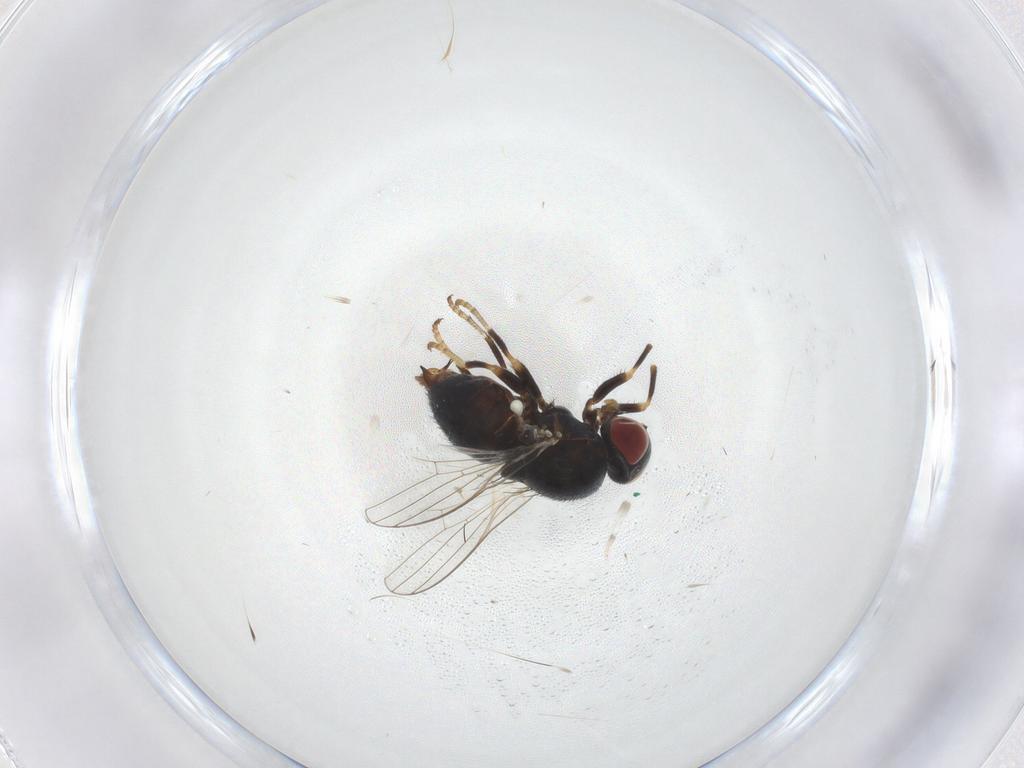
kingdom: Animalia
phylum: Arthropoda
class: Insecta
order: Diptera
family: Chamaemyiidae
